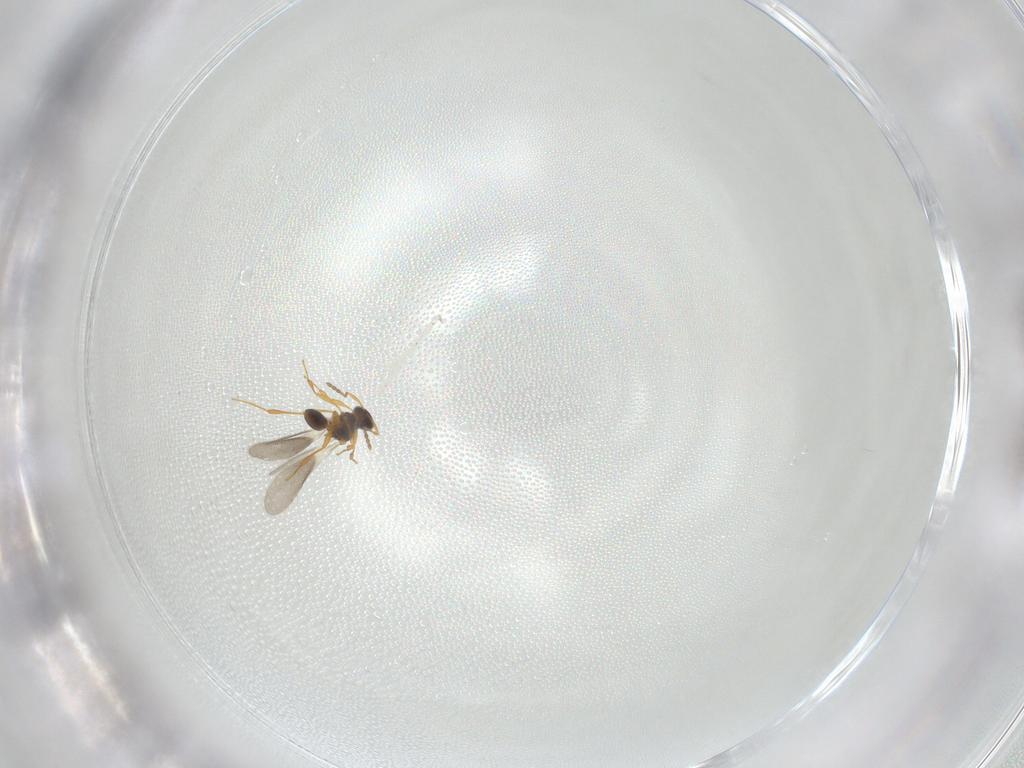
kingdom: Animalia
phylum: Arthropoda
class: Insecta
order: Hymenoptera
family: Platygastridae
